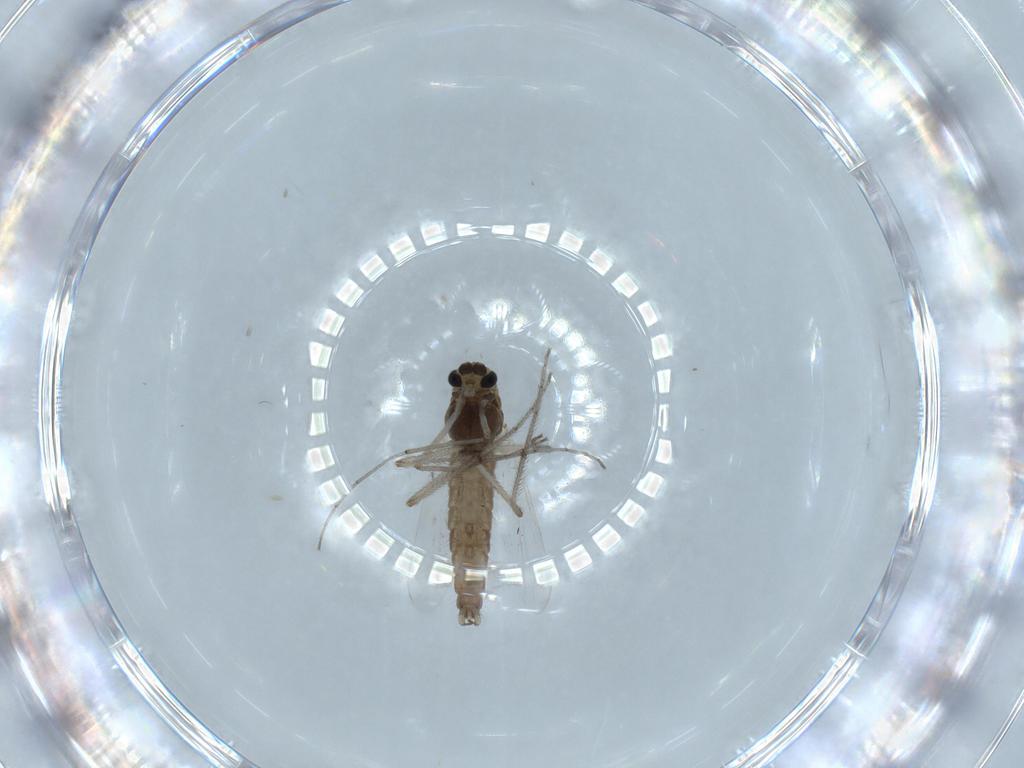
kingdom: Animalia
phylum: Arthropoda
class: Insecta
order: Diptera
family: Chironomidae
